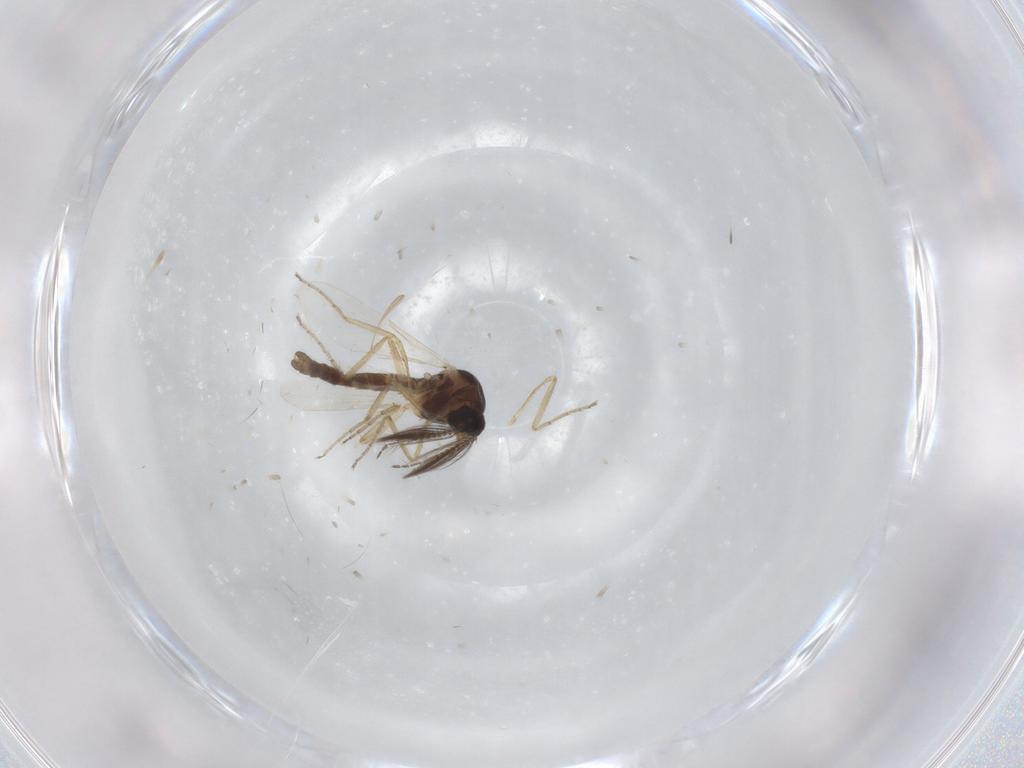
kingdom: Animalia
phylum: Arthropoda
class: Insecta
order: Diptera
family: Ceratopogonidae
